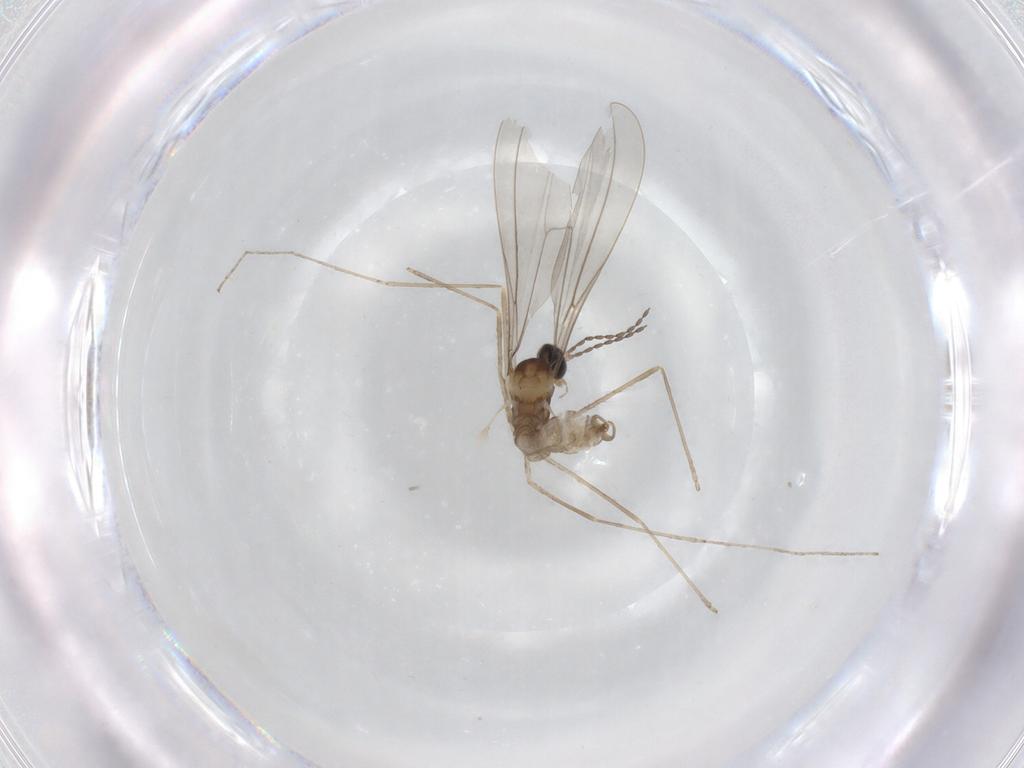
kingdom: Animalia
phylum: Arthropoda
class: Insecta
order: Diptera
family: Cecidomyiidae
